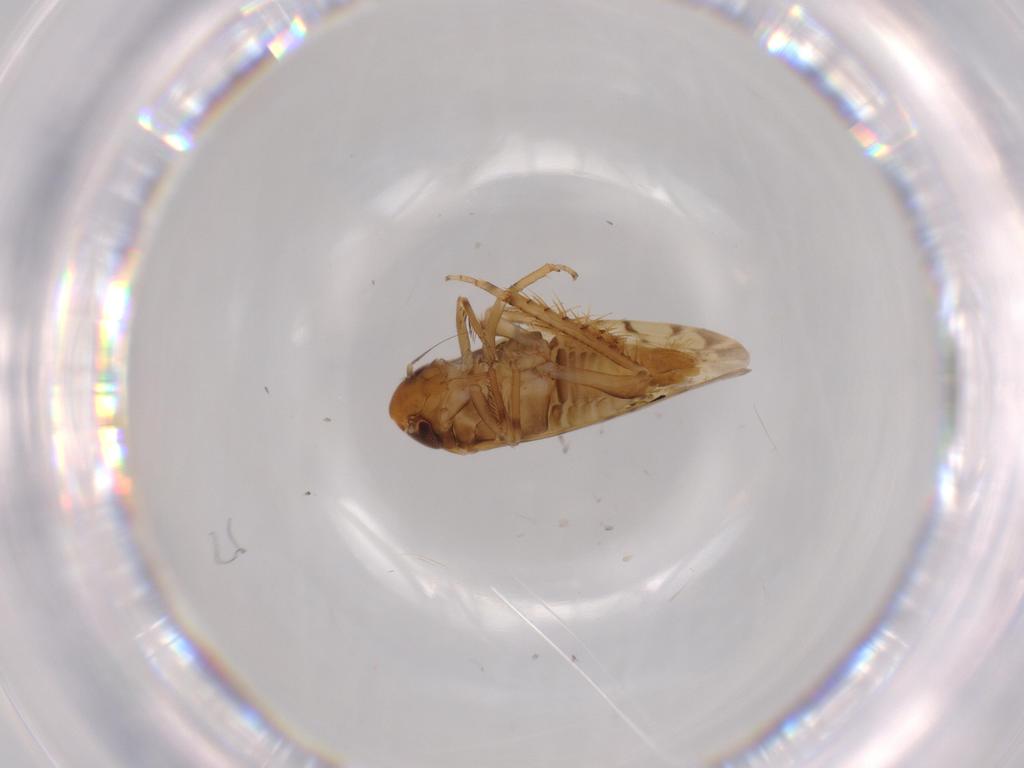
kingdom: Animalia
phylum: Arthropoda
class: Insecta
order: Hemiptera
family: Cicadellidae
